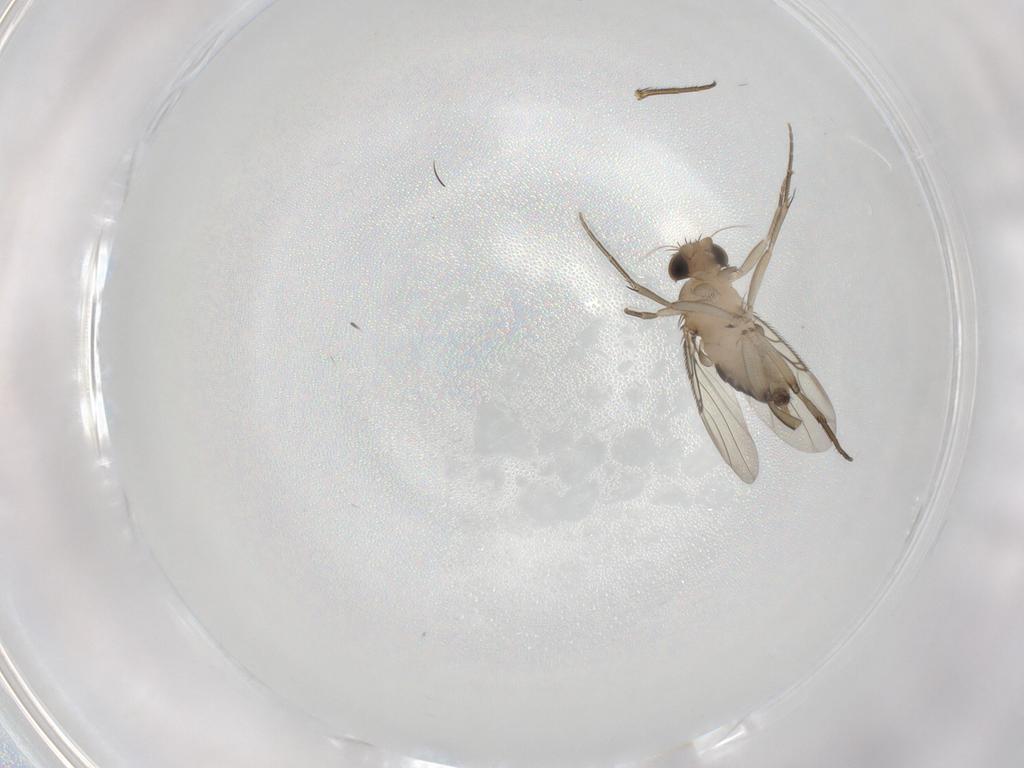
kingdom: Animalia
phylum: Arthropoda
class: Insecta
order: Diptera
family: Phoridae
